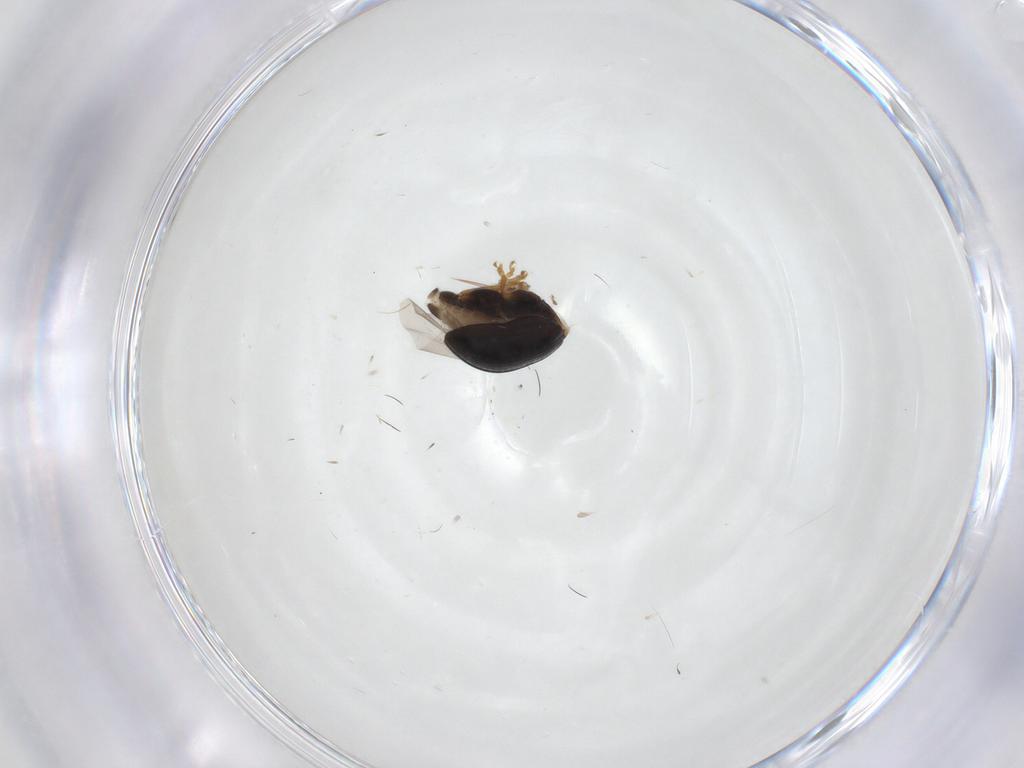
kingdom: Animalia
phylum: Arthropoda
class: Insecta
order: Coleoptera
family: Chrysomelidae
